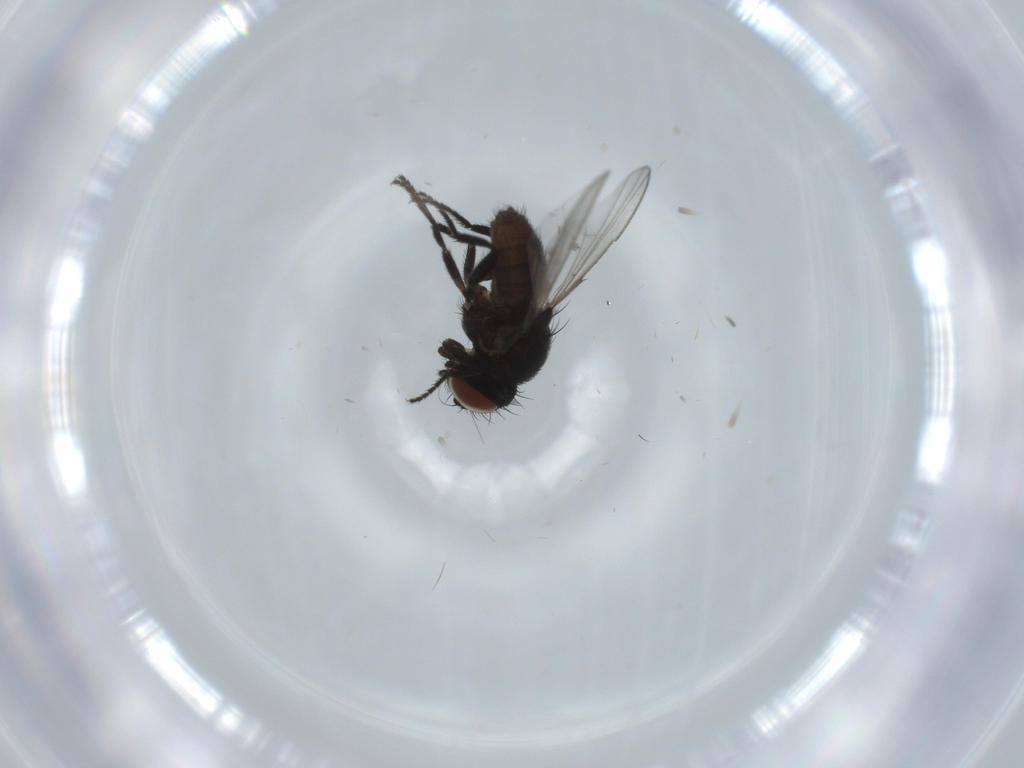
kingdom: Animalia
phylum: Arthropoda
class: Insecta
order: Diptera
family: Milichiidae
